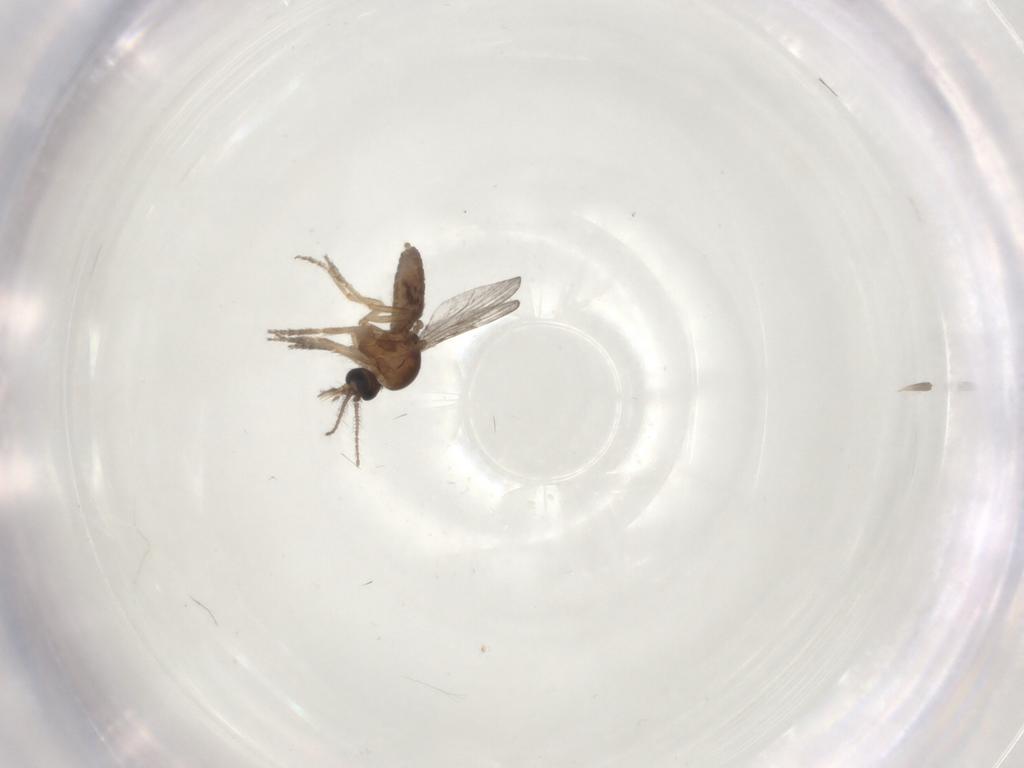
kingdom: Animalia
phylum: Arthropoda
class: Insecta
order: Diptera
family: Ceratopogonidae
